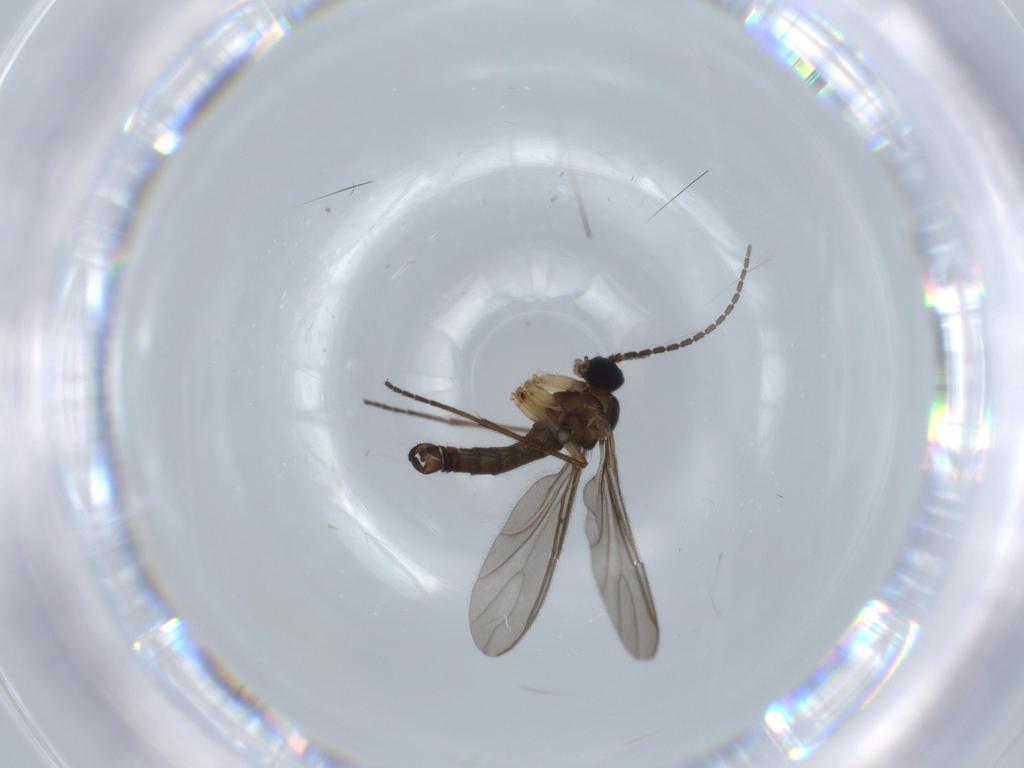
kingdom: Animalia
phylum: Arthropoda
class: Insecta
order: Diptera
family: Sciaridae
